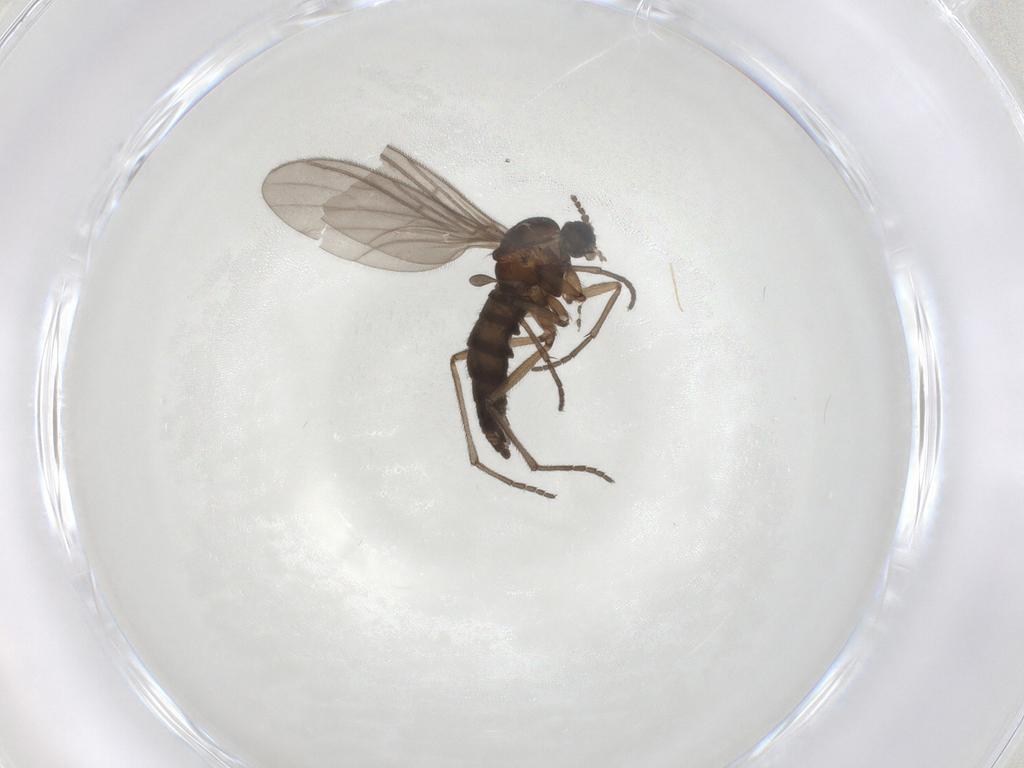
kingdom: Animalia
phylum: Arthropoda
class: Insecta
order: Diptera
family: Sciaridae
